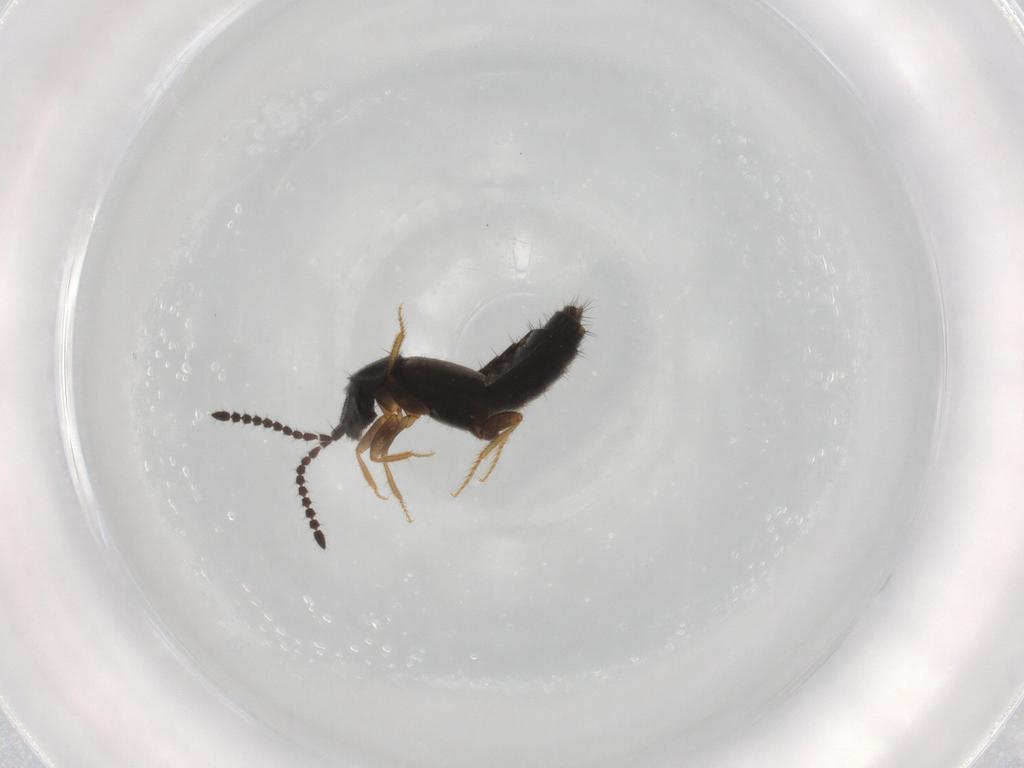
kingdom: Animalia
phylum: Arthropoda
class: Insecta
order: Coleoptera
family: Staphylinidae
